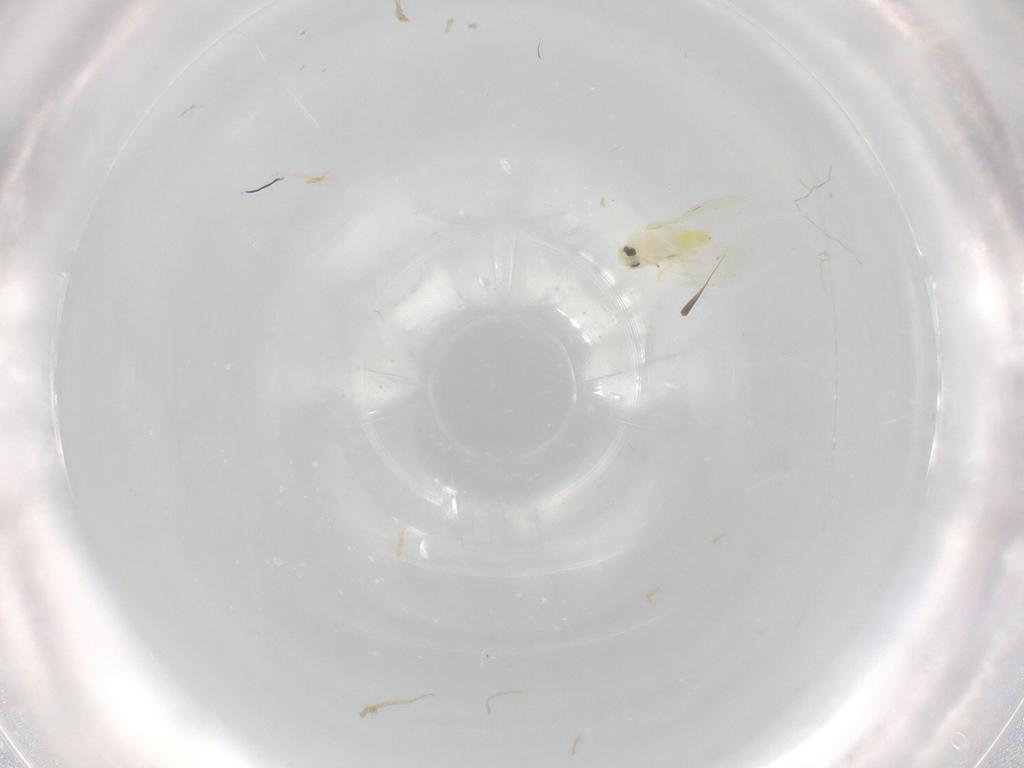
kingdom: Animalia
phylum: Arthropoda
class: Insecta
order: Hemiptera
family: Aleyrodidae
